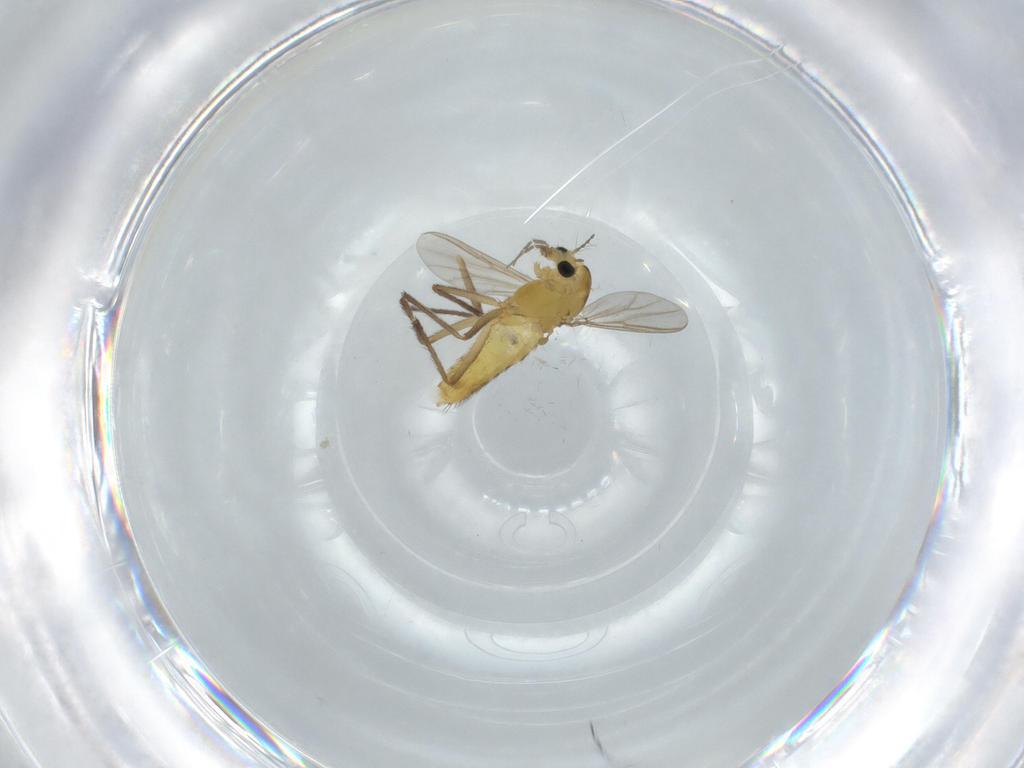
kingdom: Animalia
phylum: Arthropoda
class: Insecta
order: Diptera
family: Chironomidae
